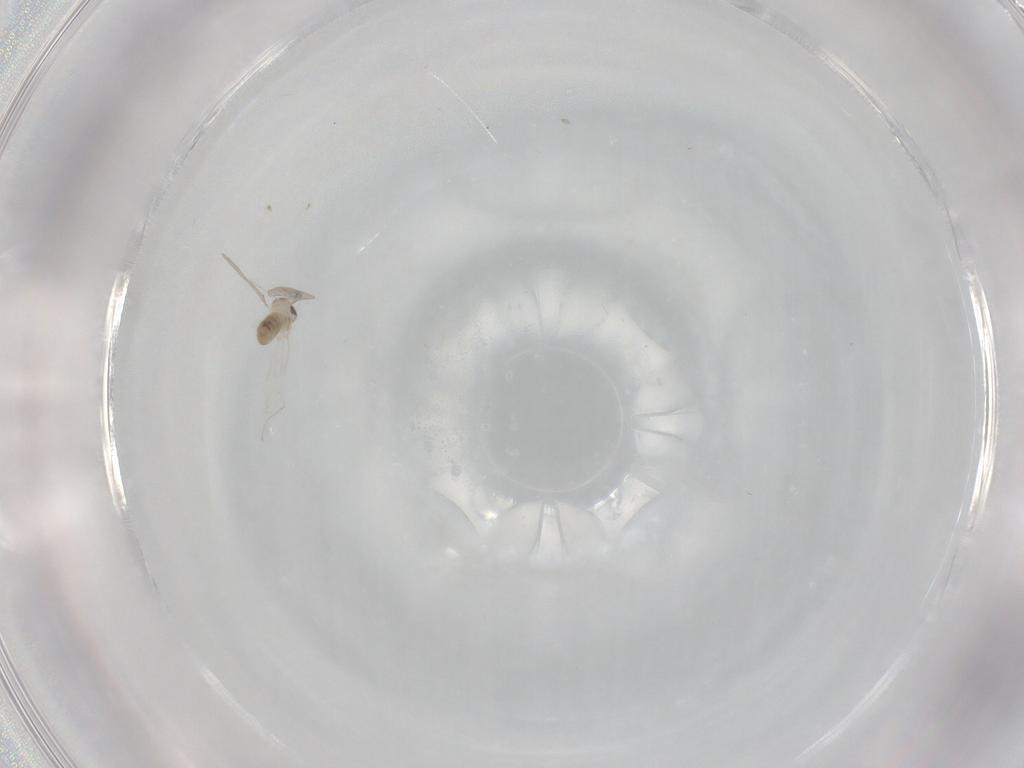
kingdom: Animalia
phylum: Arthropoda
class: Insecta
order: Diptera
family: Cecidomyiidae
